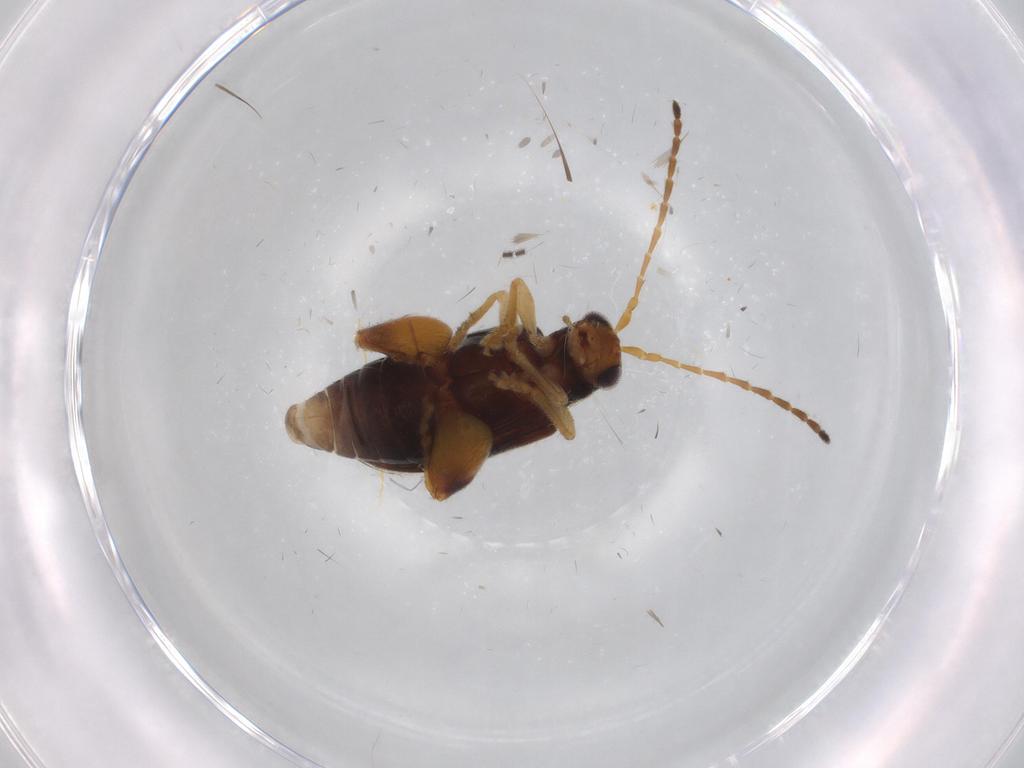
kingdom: Animalia
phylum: Arthropoda
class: Insecta
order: Coleoptera
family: Chrysomelidae
